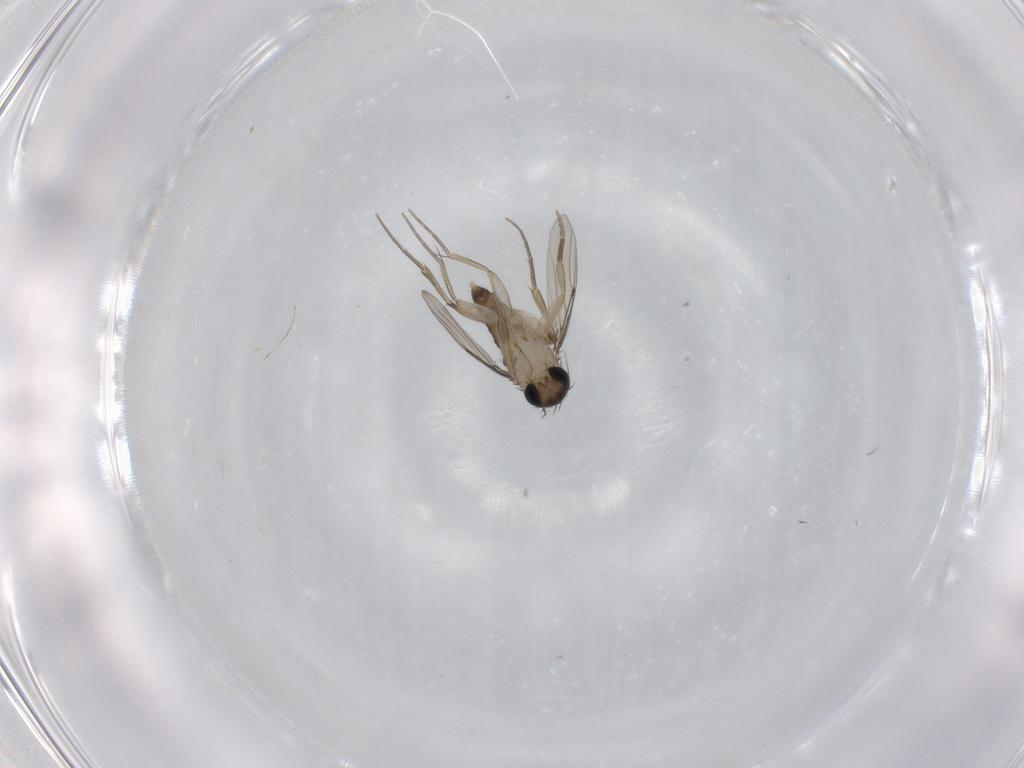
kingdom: Animalia
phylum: Arthropoda
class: Insecta
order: Diptera
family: Phoridae
